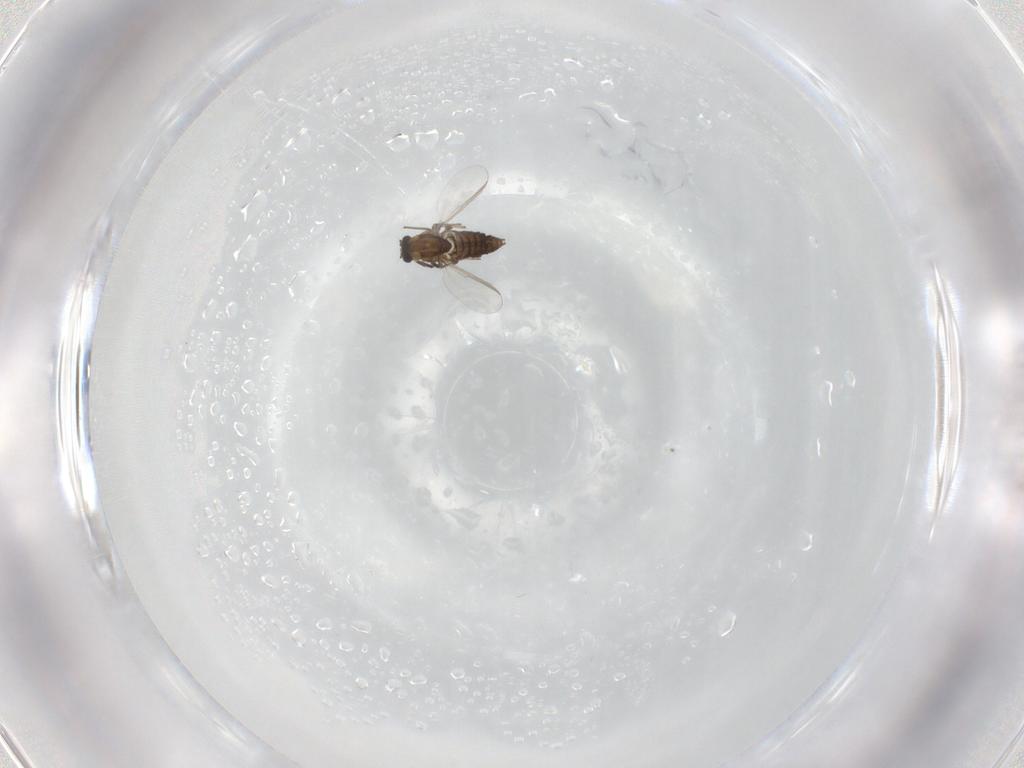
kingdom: Animalia
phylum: Arthropoda
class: Insecta
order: Diptera
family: Chironomidae
